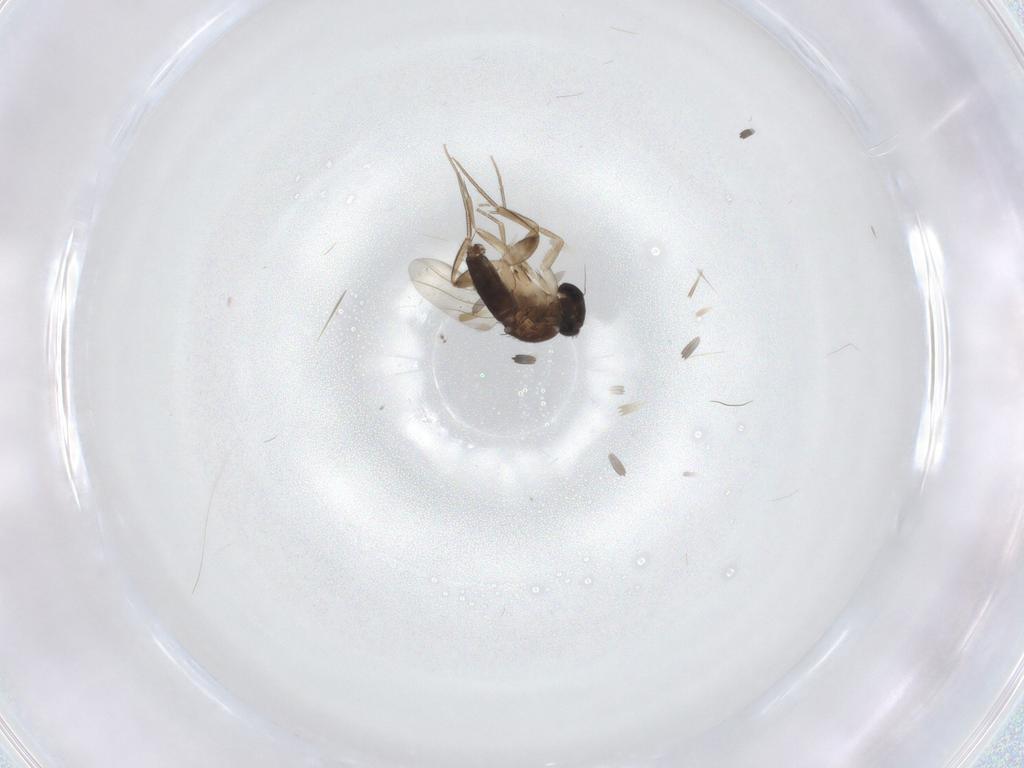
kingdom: Animalia
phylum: Arthropoda
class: Insecta
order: Diptera
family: Phoridae
